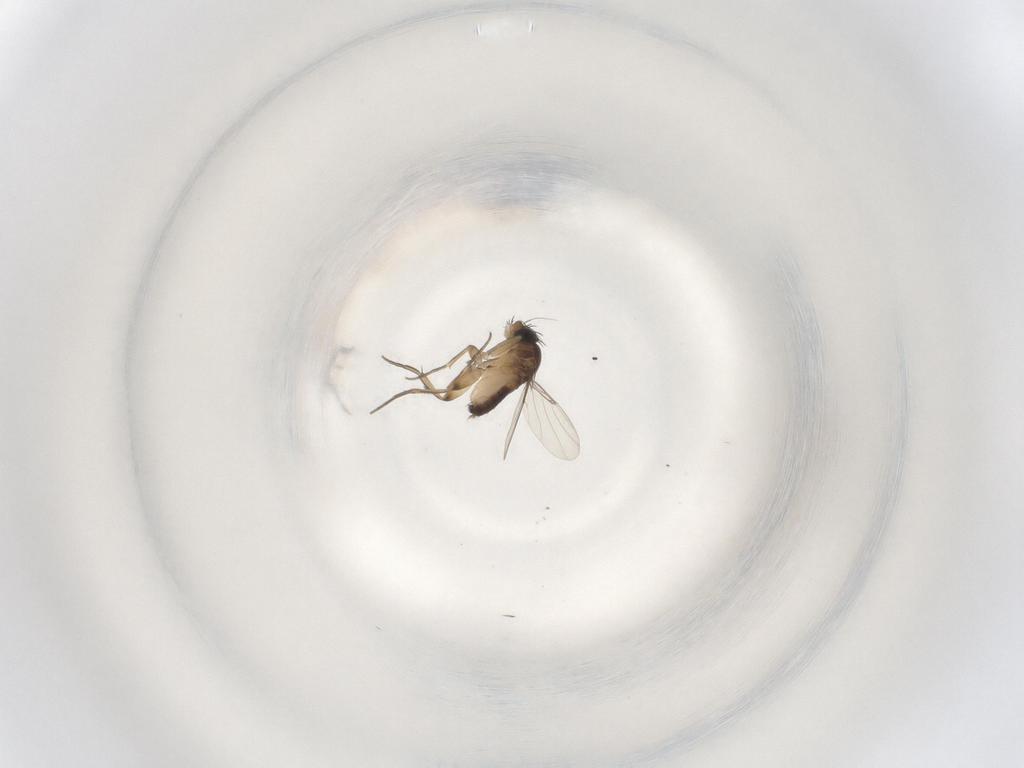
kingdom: Animalia
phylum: Arthropoda
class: Insecta
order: Diptera
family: Phoridae
